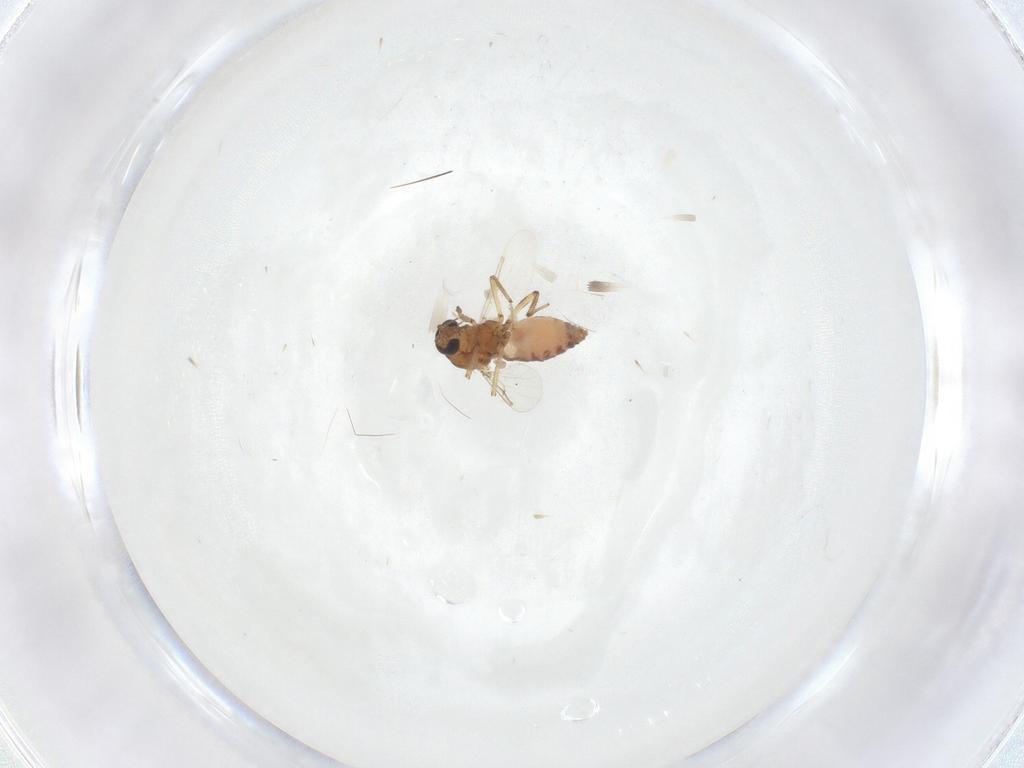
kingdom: Animalia
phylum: Arthropoda
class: Insecta
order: Diptera
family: Ceratopogonidae
